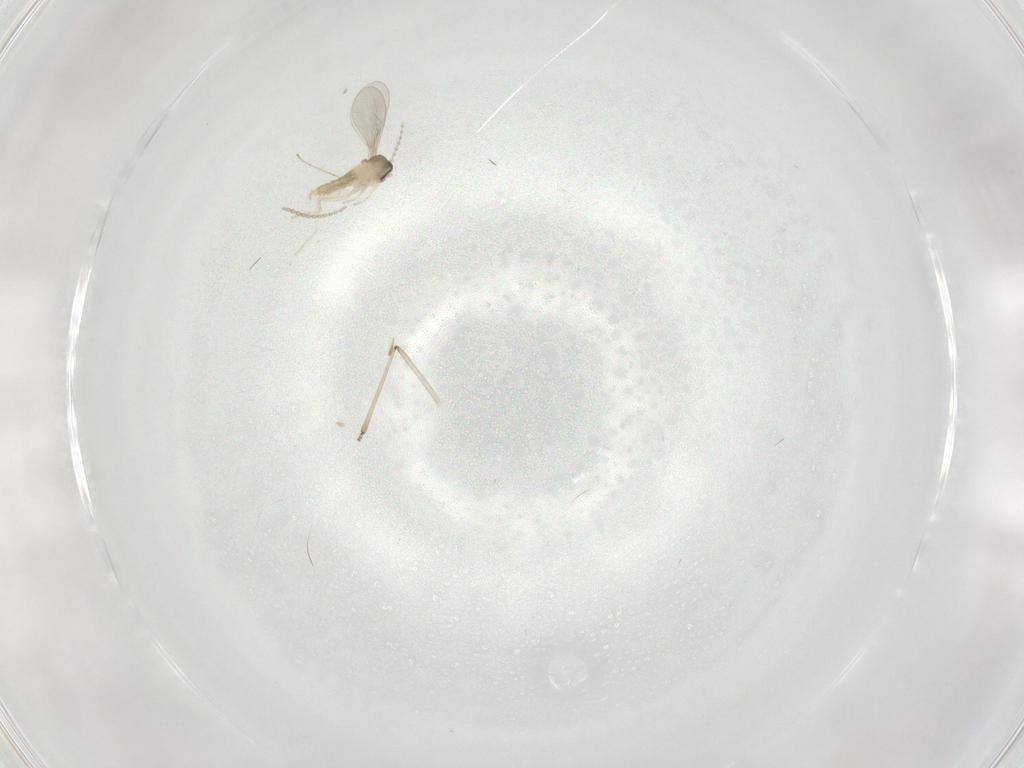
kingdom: Animalia
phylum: Arthropoda
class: Insecta
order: Diptera
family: Cecidomyiidae
